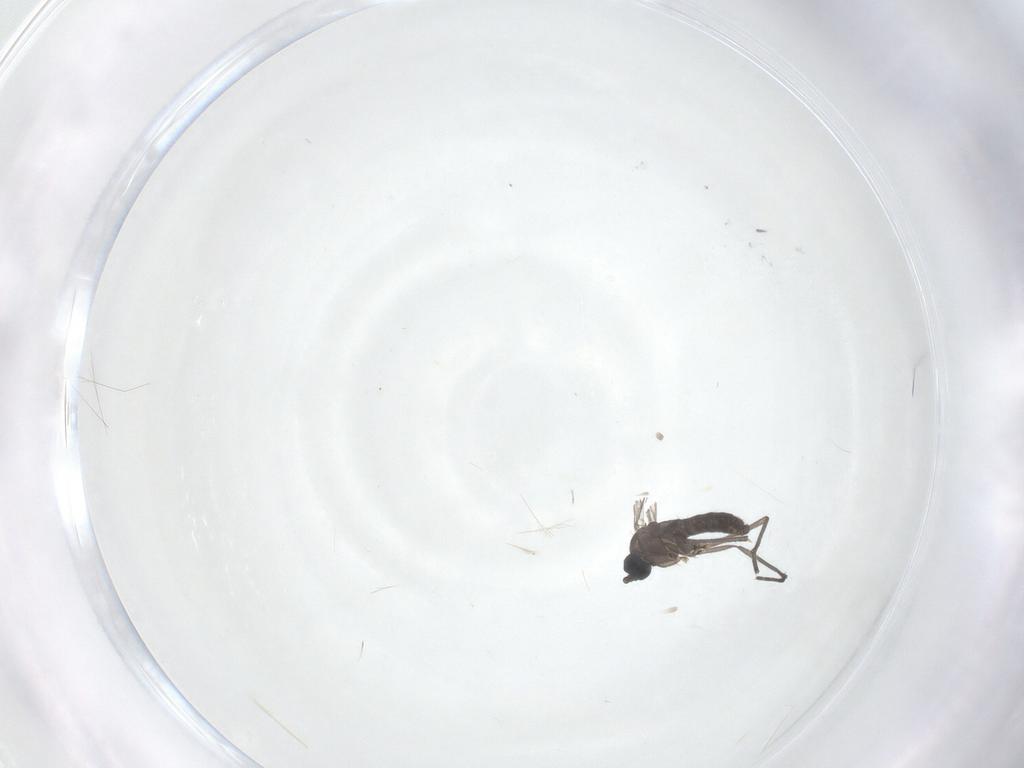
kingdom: Animalia
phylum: Arthropoda
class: Insecta
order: Diptera
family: Sciaridae
